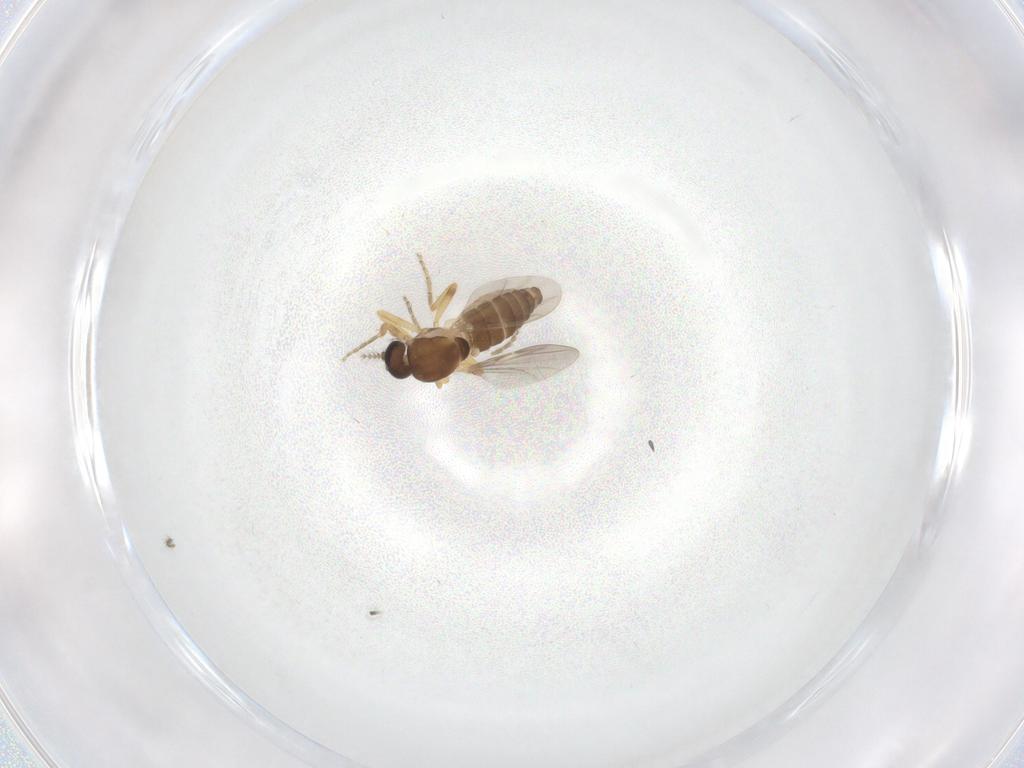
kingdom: Animalia
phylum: Arthropoda
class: Insecta
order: Diptera
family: Ceratopogonidae
